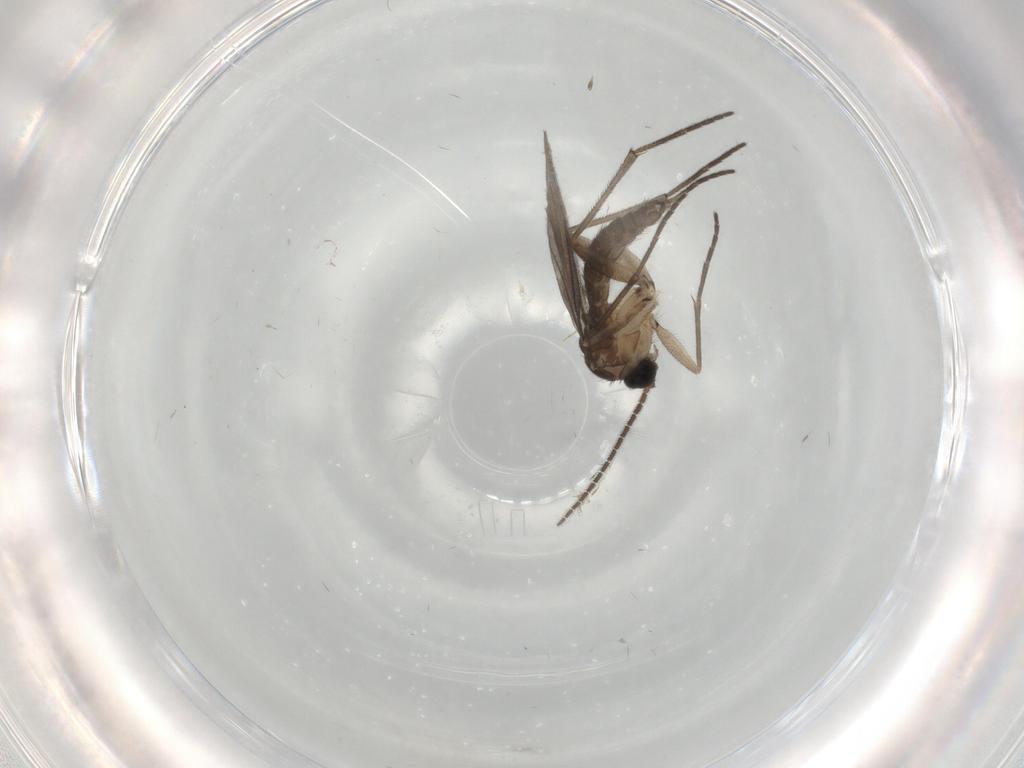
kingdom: Animalia
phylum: Arthropoda
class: Insecta
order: Diptera
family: Sciaridae
